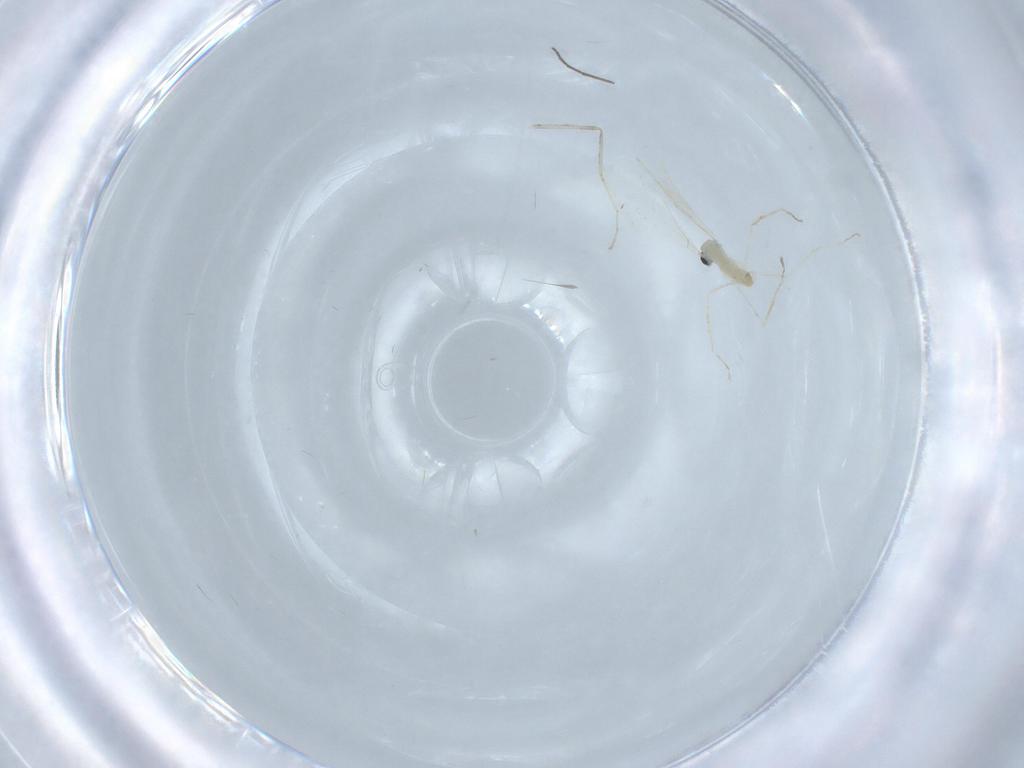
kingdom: Animalia
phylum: Arthropoda
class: Insecta
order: Diptera
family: Cecidomyiidae
